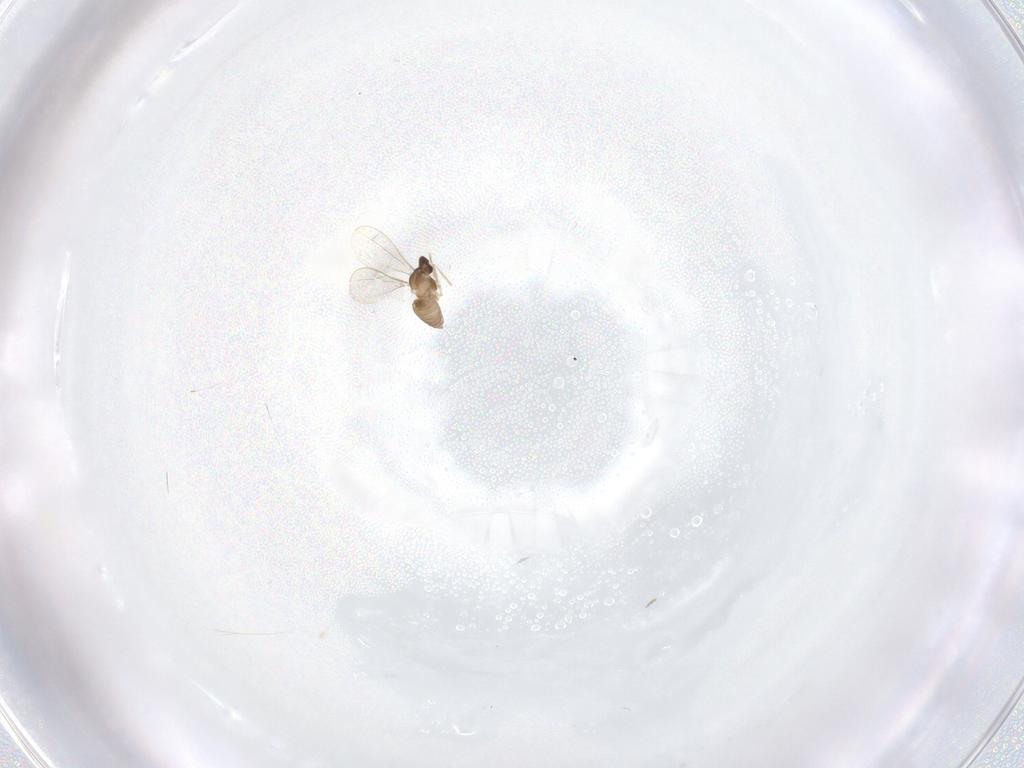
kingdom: Animalia
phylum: Arthropoda
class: Insecta
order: Diptera
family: Cecidomyiidae
